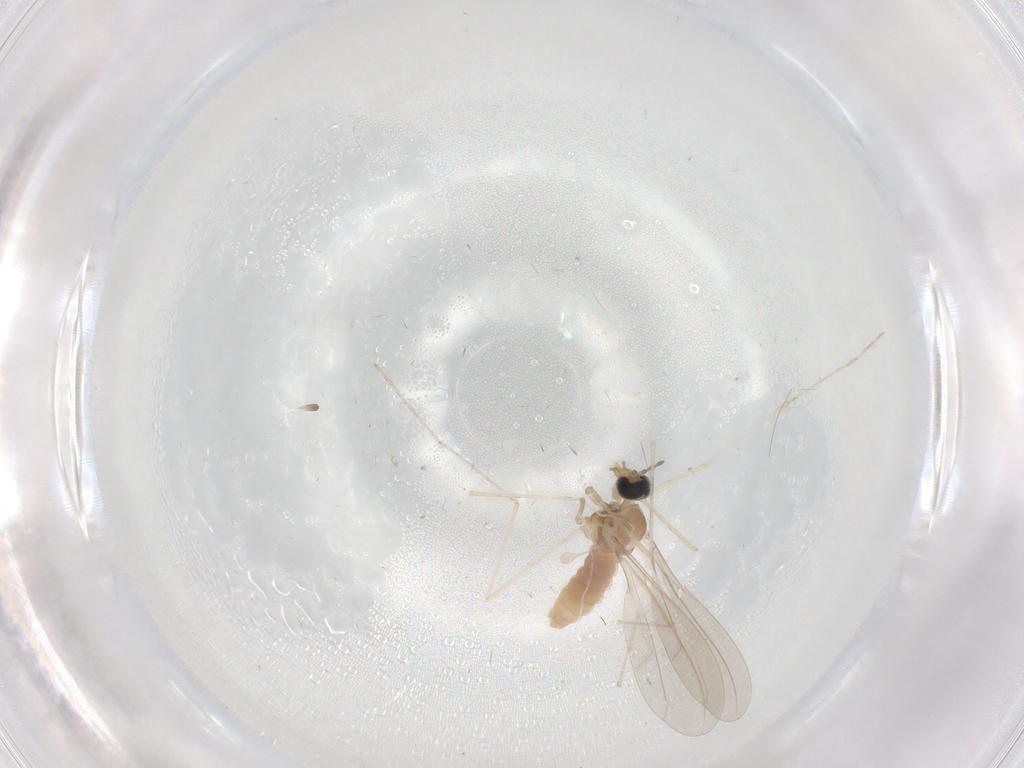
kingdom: Animalia
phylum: Arthropoda
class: Insecta
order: Diptera
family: Cecidomyiidae
